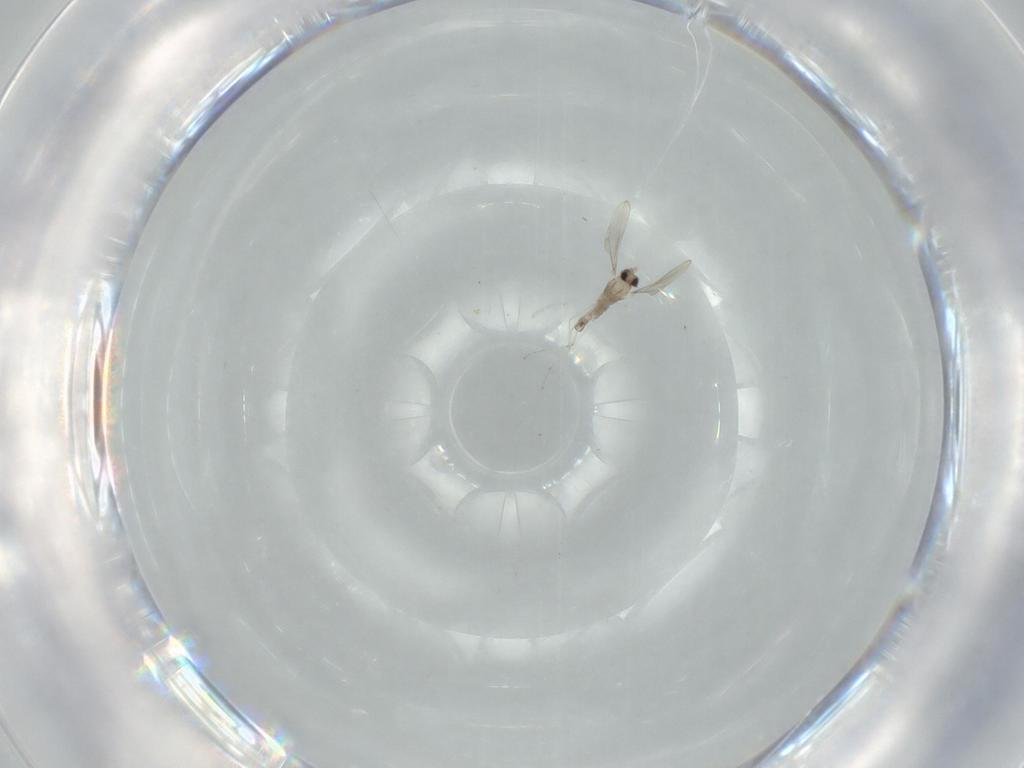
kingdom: Animalia
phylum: Arthropoda
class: Insecta
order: Diptera
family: Cecidomyiidae
